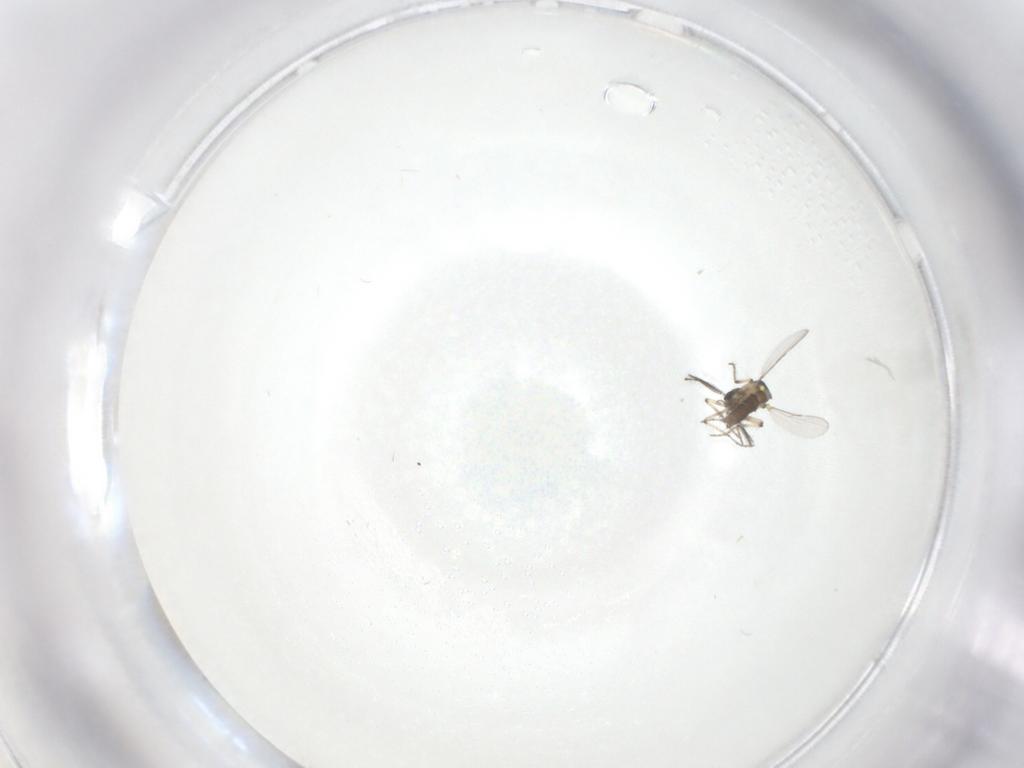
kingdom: Animalia
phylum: Arthropoda
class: Insecta
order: Diptera
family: Ceratopogonidae
